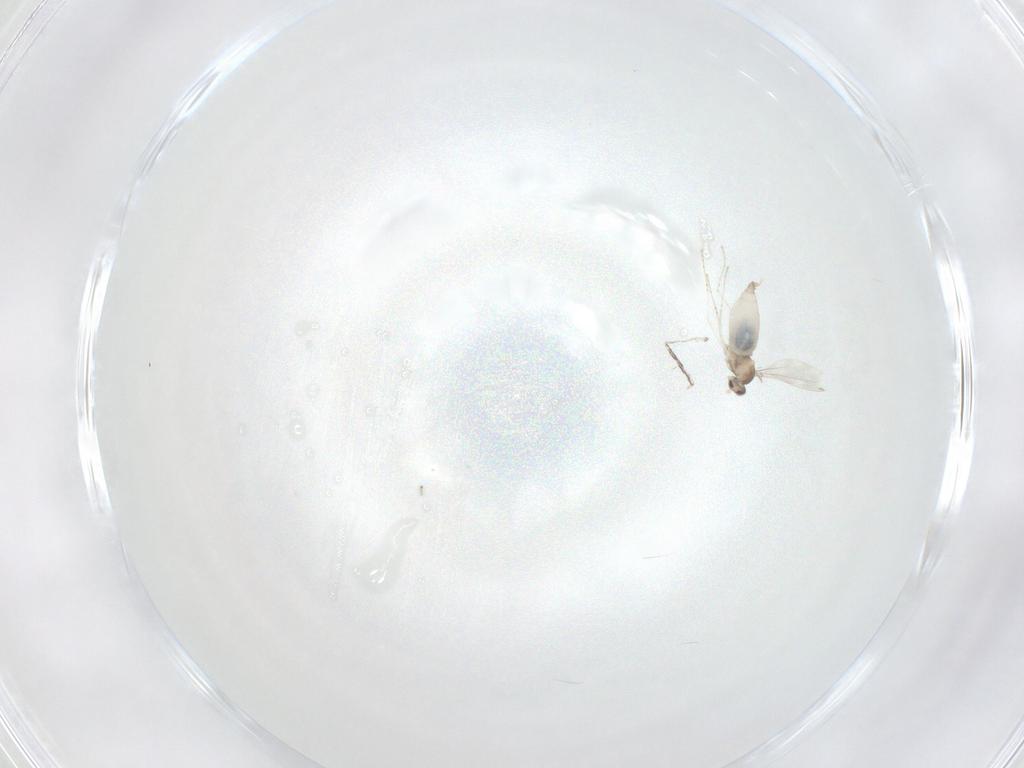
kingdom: Animalia
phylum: Arthropoda
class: Insecta
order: Diptera
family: Cecidomyiidae
